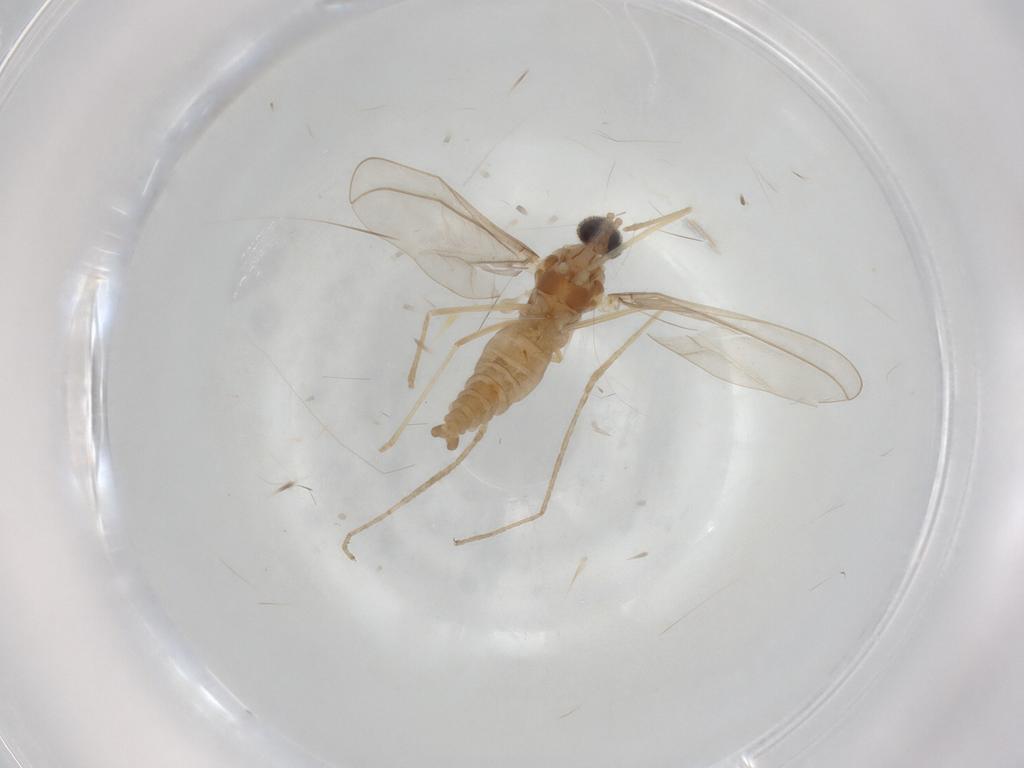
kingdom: Animalia
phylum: Arthropoda
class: Insecta
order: Diptera
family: Cecidomyiidae
